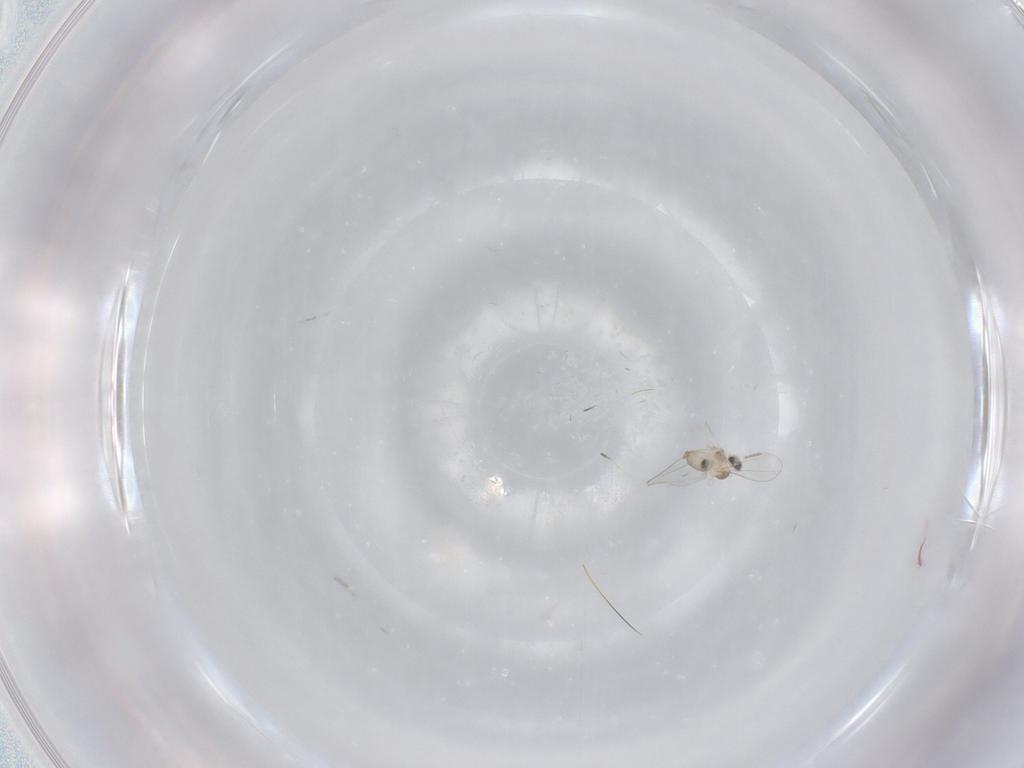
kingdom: Animalia
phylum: Arthropoda
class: Insecta
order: Diptera
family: Cecidomyiidae
